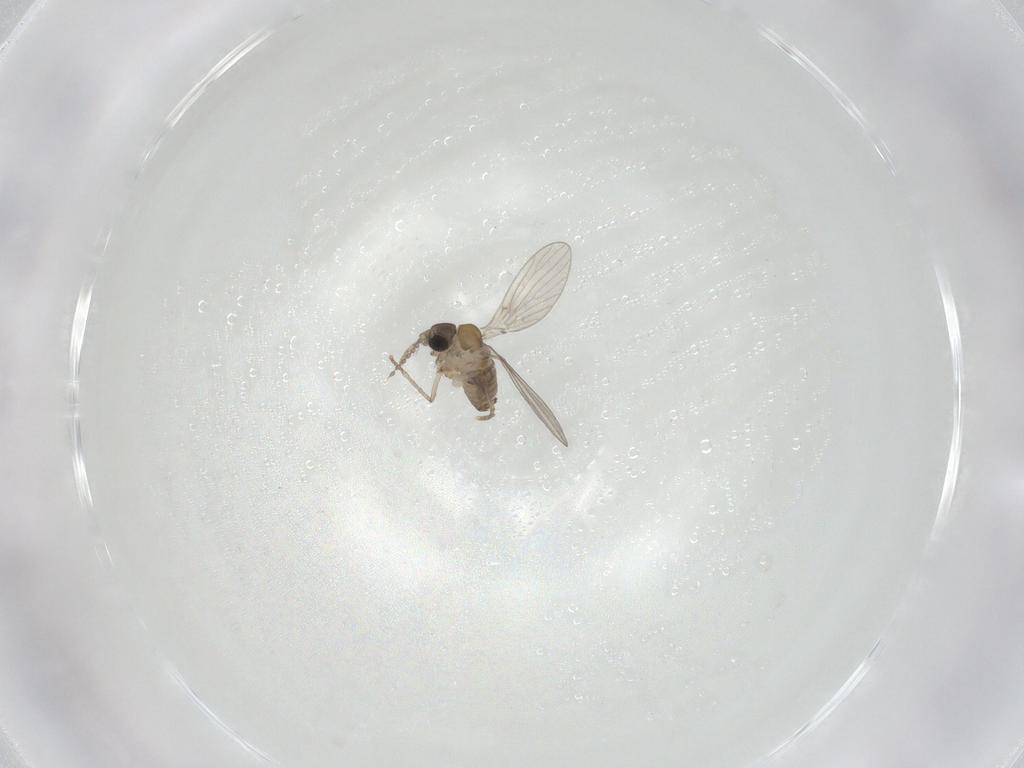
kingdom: Animalia
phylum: Arthropoda
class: Insecta
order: Diptera
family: Psychodidae
